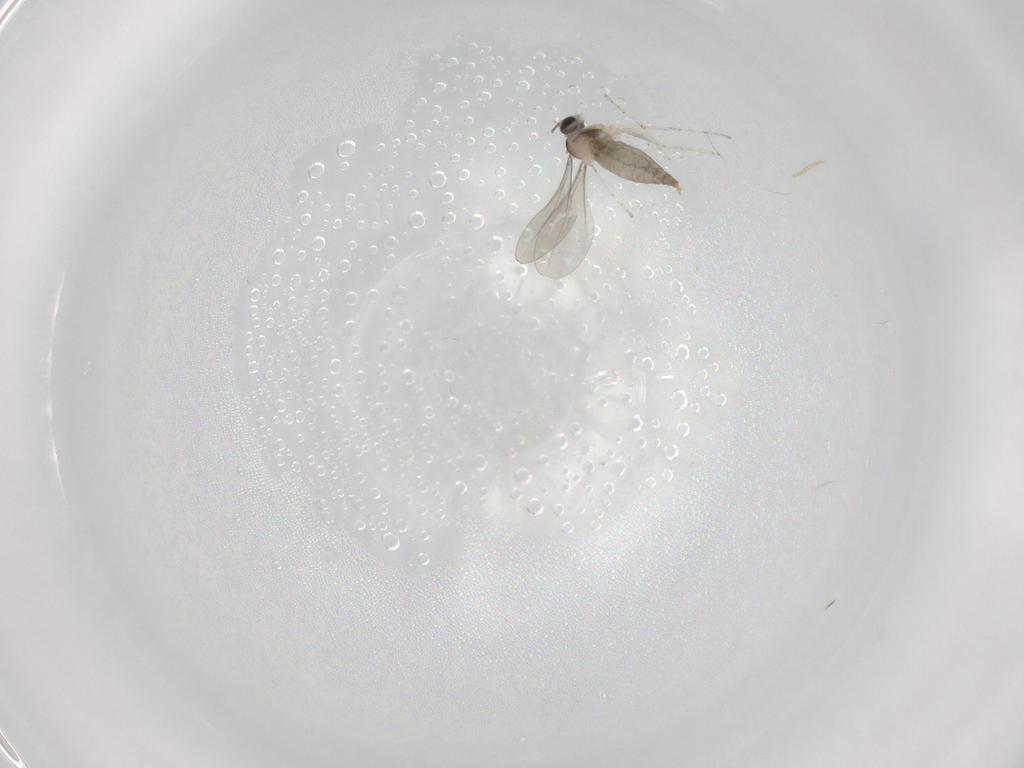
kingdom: Animalia
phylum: Arthropoda
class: Insecta
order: Diptera
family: Cecidomyiidae
